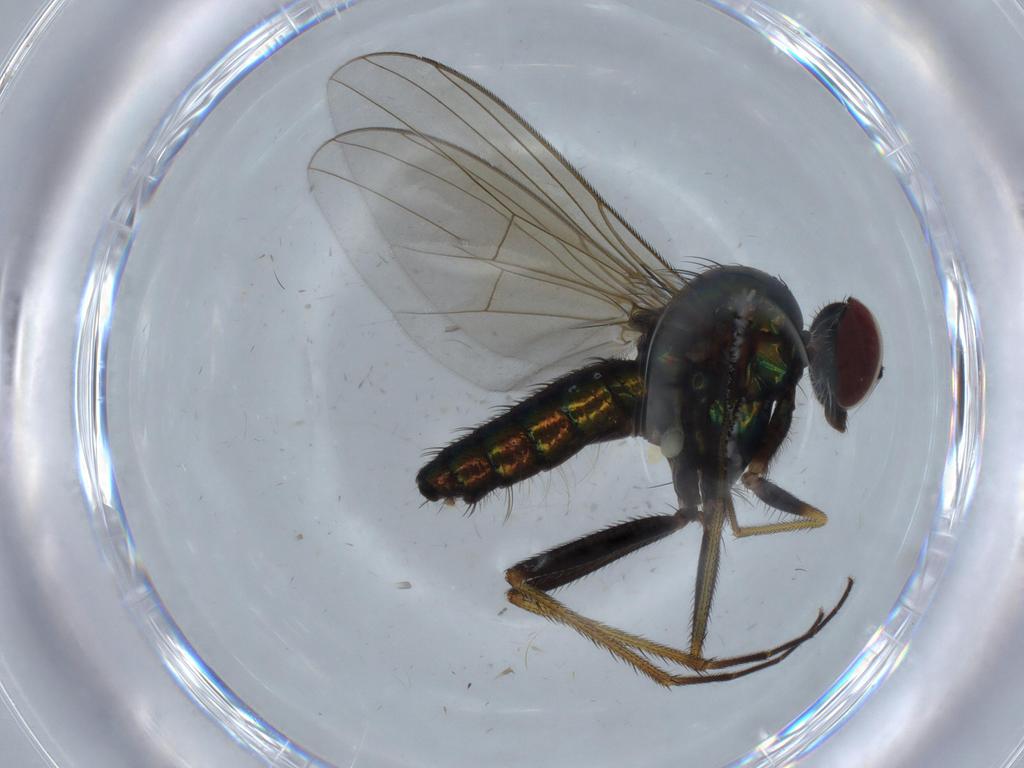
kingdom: Animalia
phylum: Arthropoda
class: Insecta
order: Diptera
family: Dolichopodidae
